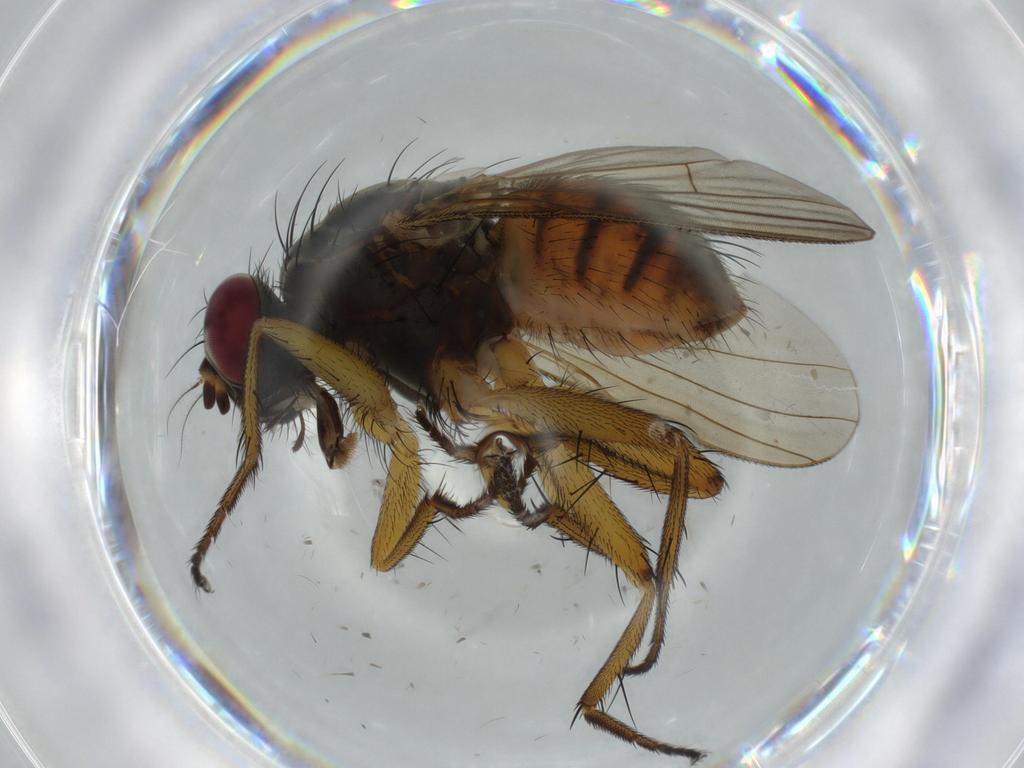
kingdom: Animalia
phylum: Arthropoda
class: Insecta
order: Diptera
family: Muscidae
